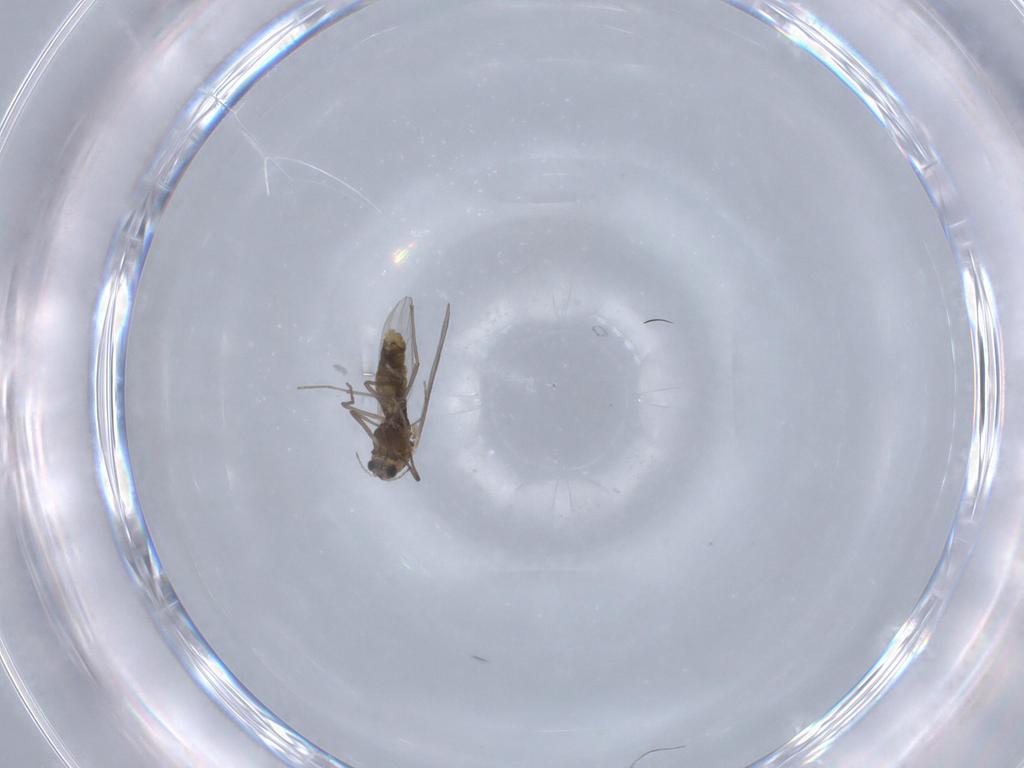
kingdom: Animalia
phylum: Arthropoda
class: Insecta
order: Diptera
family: Chironomidae
